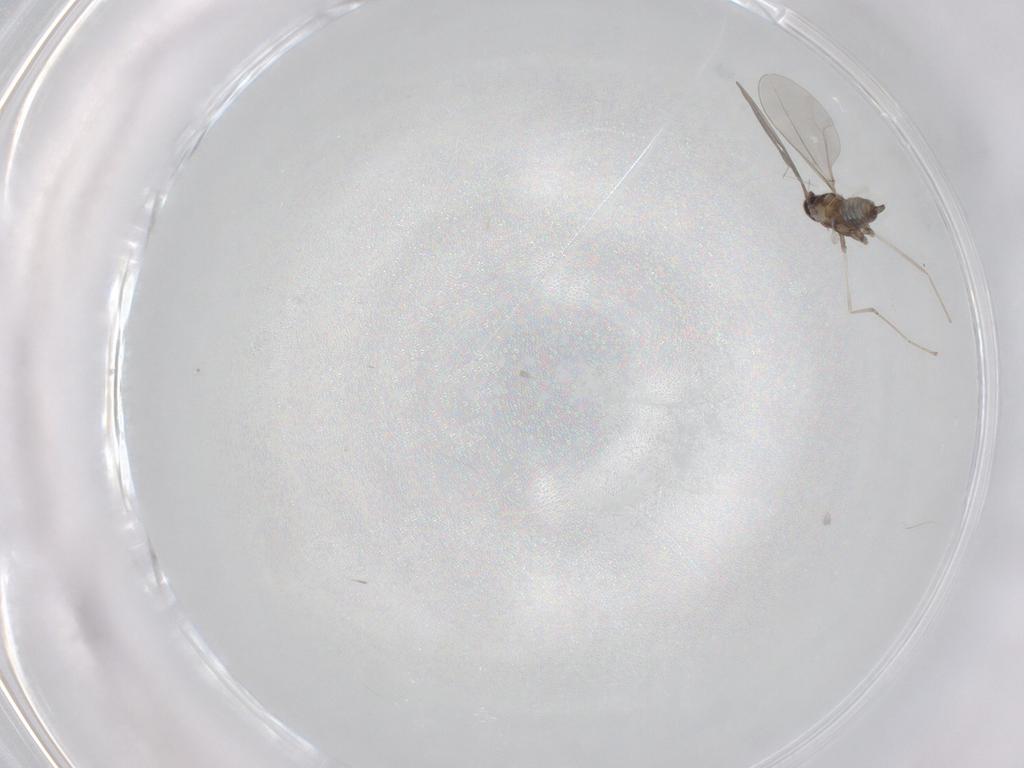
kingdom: Animalia
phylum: Arthropoda
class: Insecta
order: Diptera
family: Cecidomyiidae
